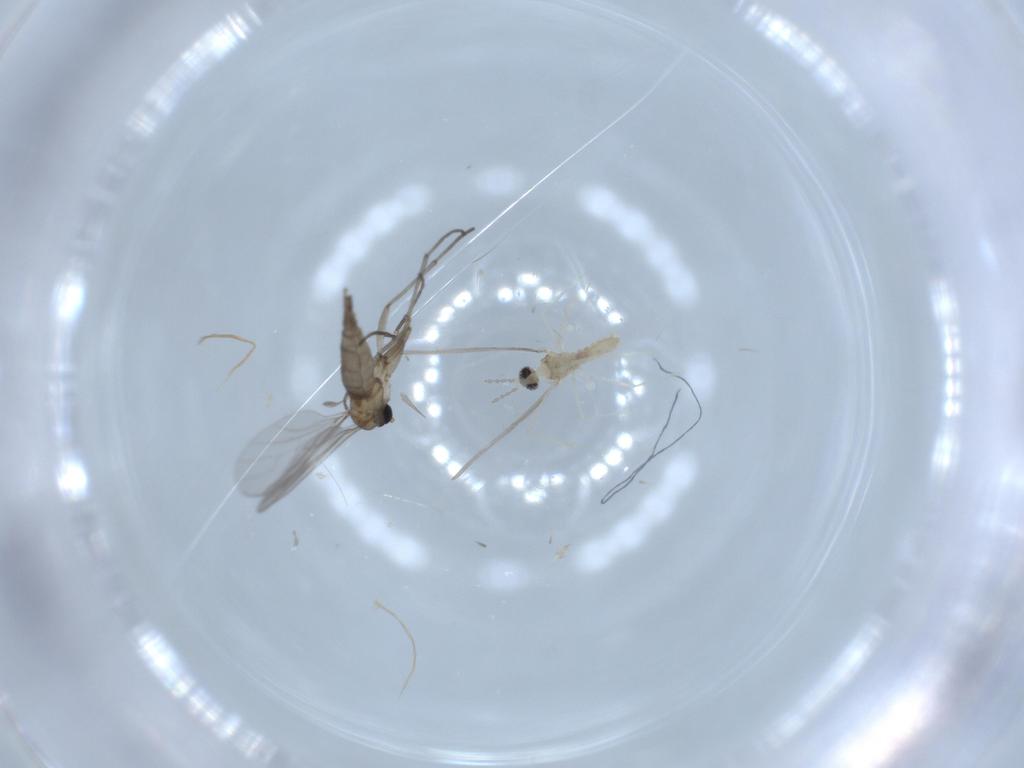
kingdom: Animalia
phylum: Arthropoda
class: Insecta
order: Diptera
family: Sciaridae
